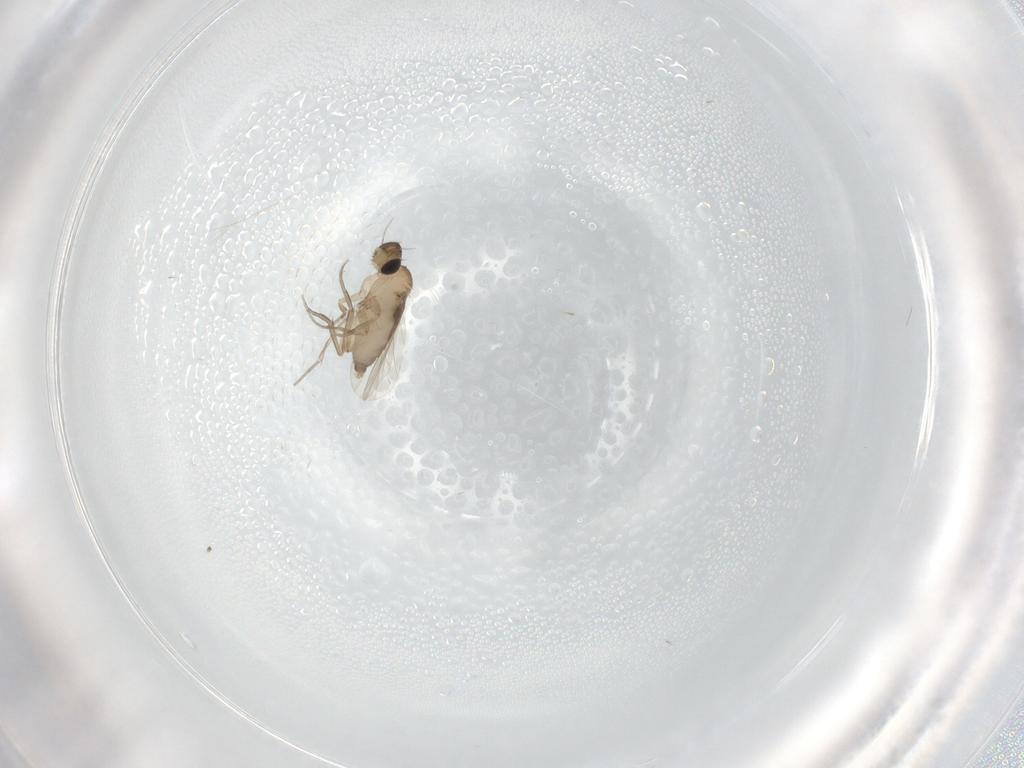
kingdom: Animalia
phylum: Arthropoda
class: Insecta
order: Diptera
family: Phoridae
